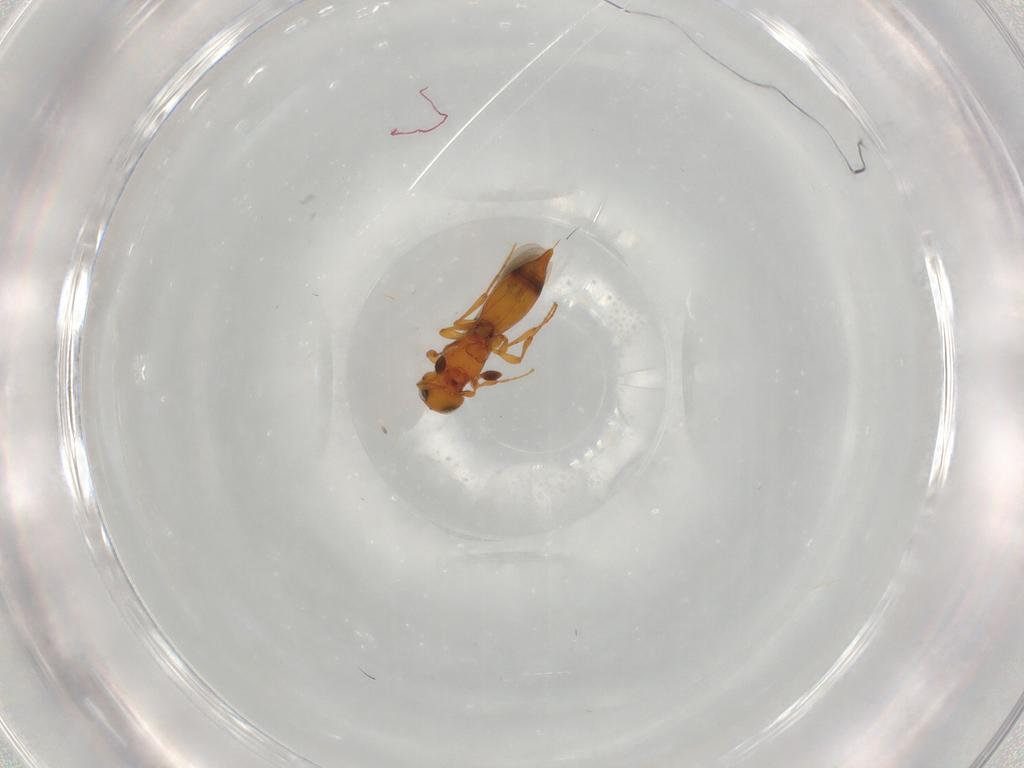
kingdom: Animalia
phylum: Arthropoda
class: Insecta
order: Hymenoptera
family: Platygastridae
